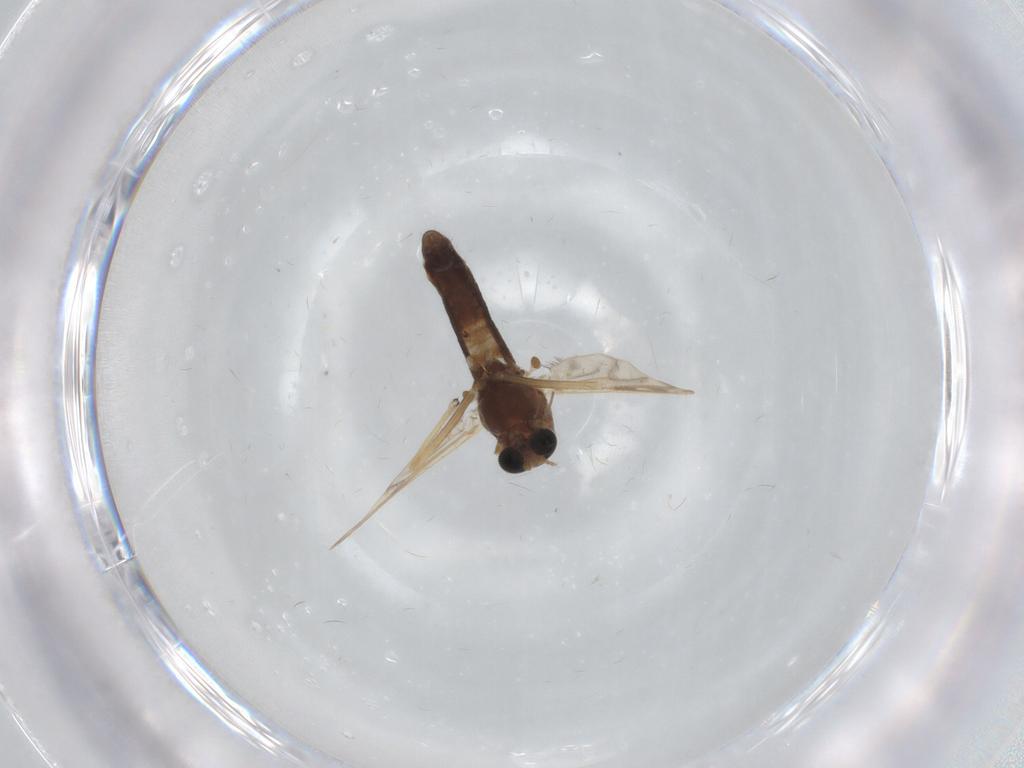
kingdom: Animalia
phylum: Arthropoda
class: Insecta
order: Diptera
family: Chironomidae
